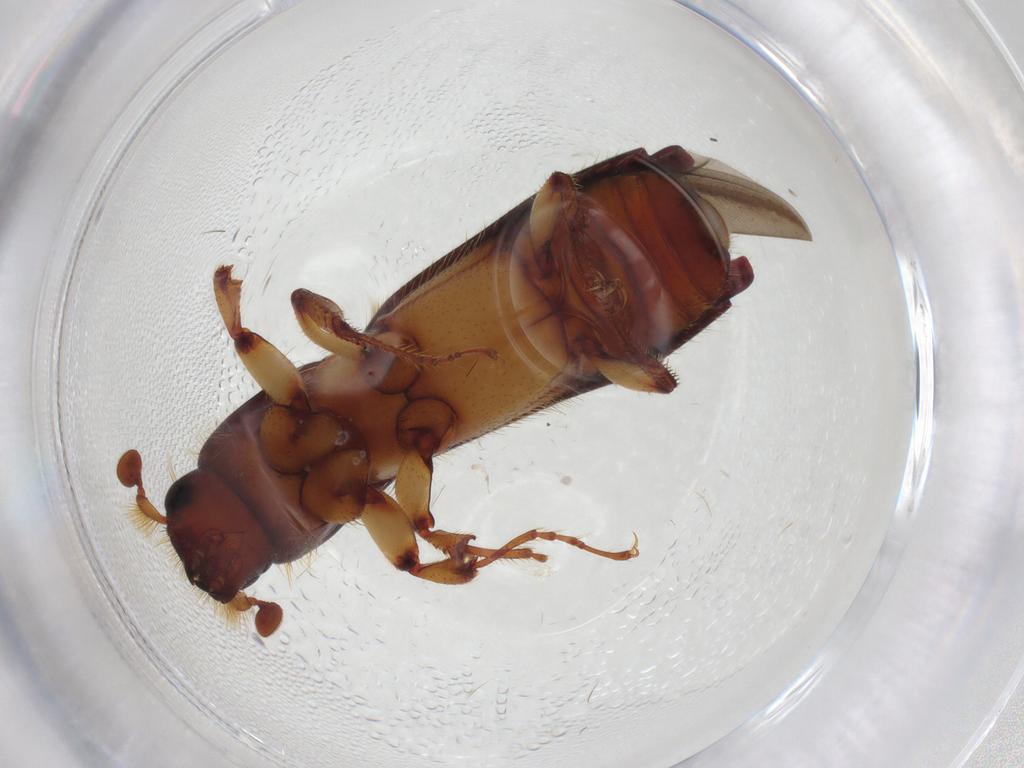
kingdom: Animalia
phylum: Arthropoda
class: Insecta
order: Coleoptera
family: Curculionidae
